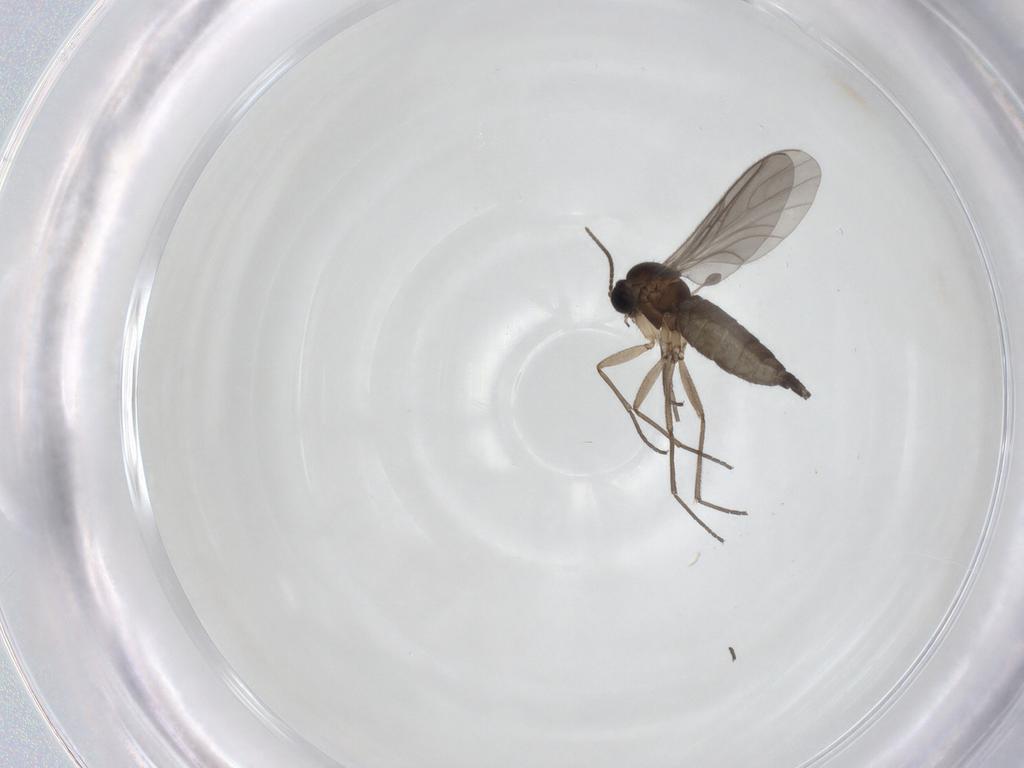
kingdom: Animalia
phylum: Arthropoda
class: Insecta
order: Diptera
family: Sciaridae
